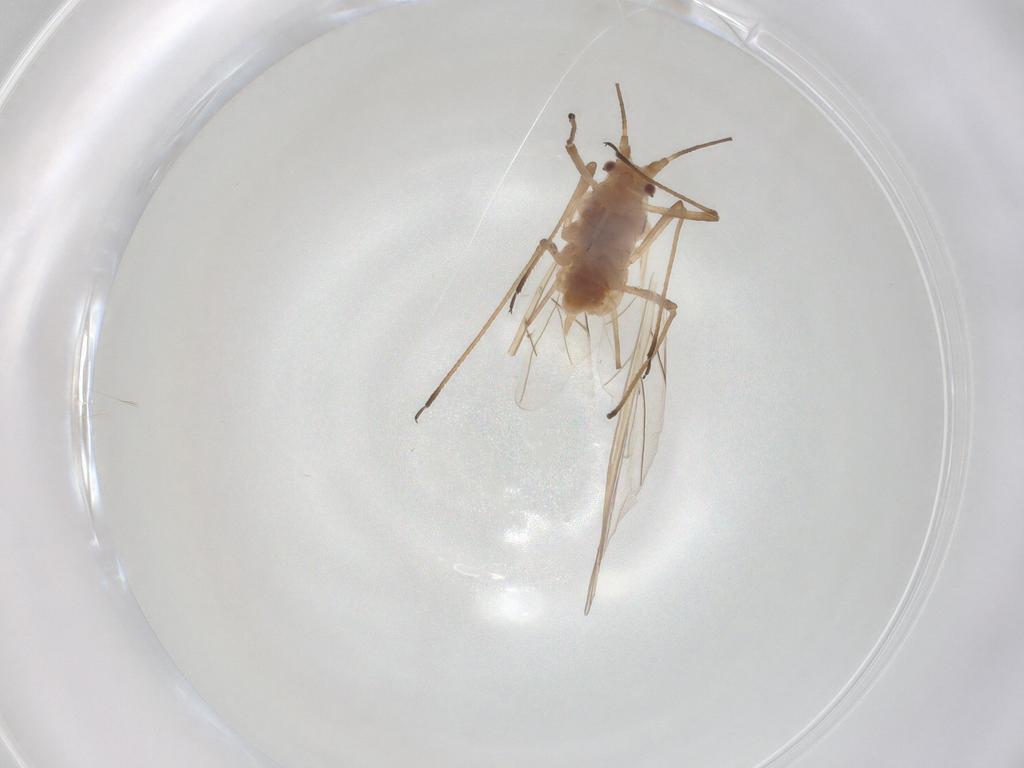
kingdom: Animalia
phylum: Arthropoda
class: Insecta
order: Hemiptera
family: Aphididae
